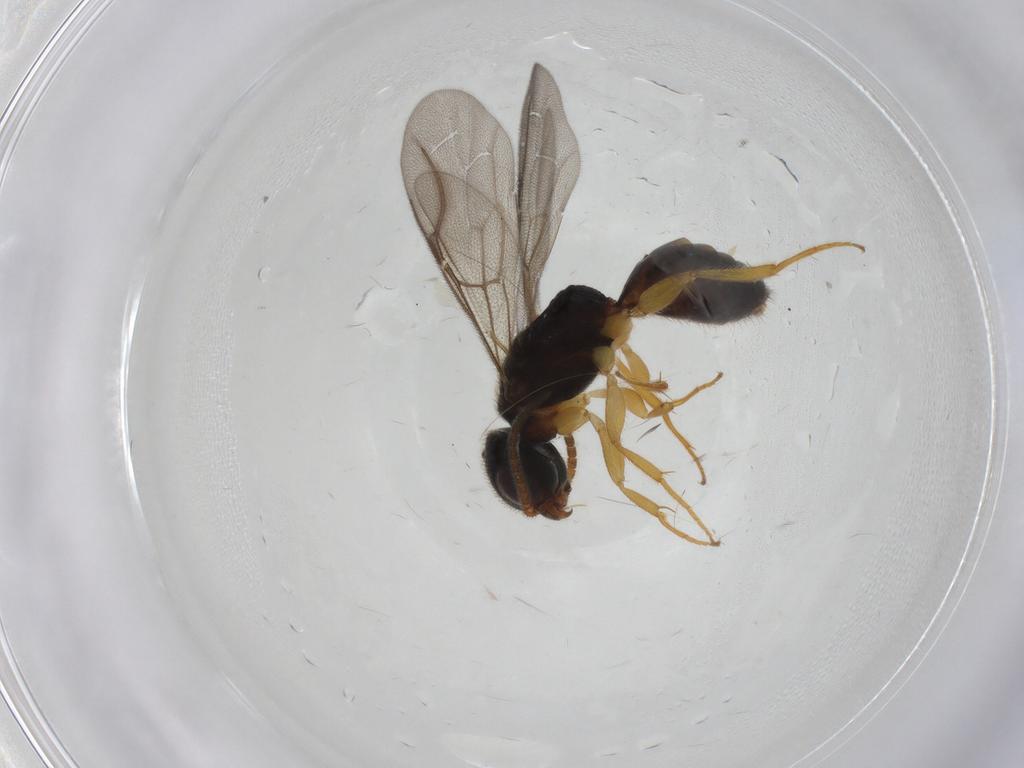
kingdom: Animalia
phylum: Arthropoda
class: Insecta
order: Hymenoptera
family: Bethylidae
